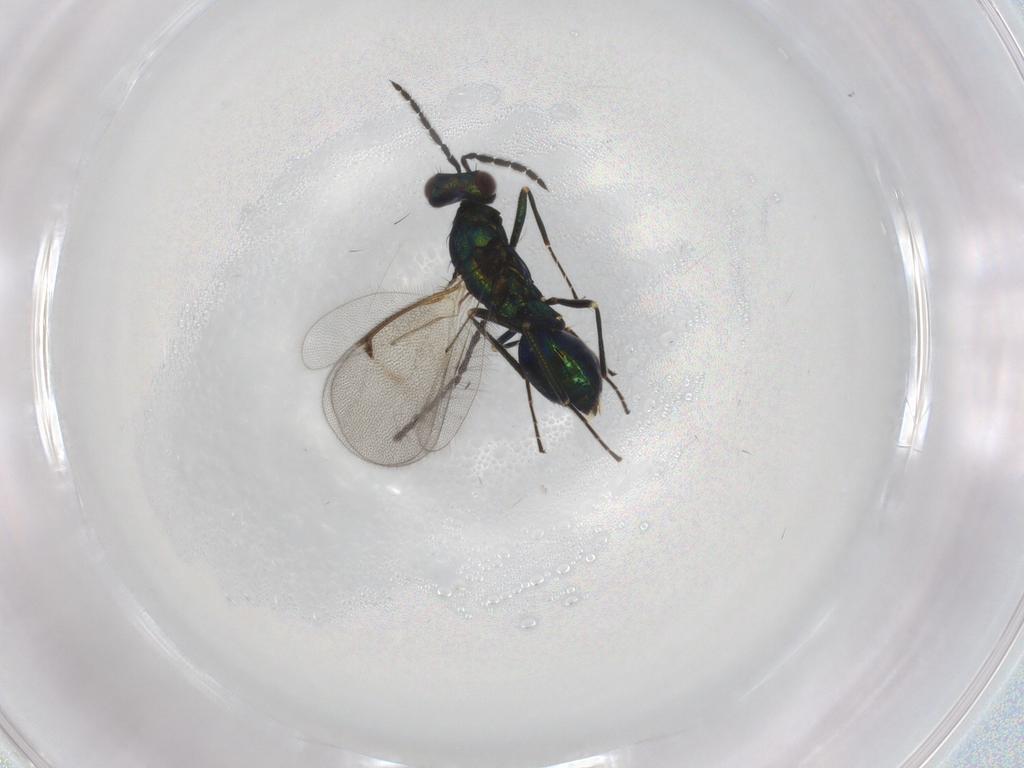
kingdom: Animalia
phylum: Arthropoda
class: Insecta
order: Hymenoptera
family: Eulophidae
